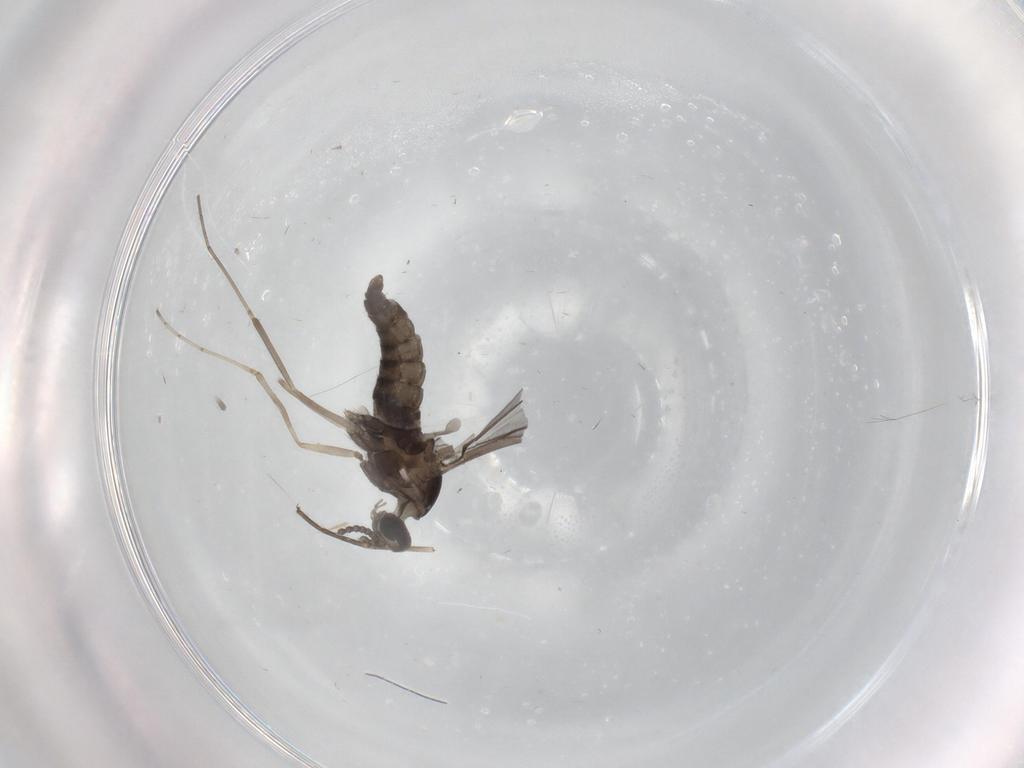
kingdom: Animalia
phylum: Arthropoda
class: Insecta
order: Diptera
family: Cecidomyiidae
